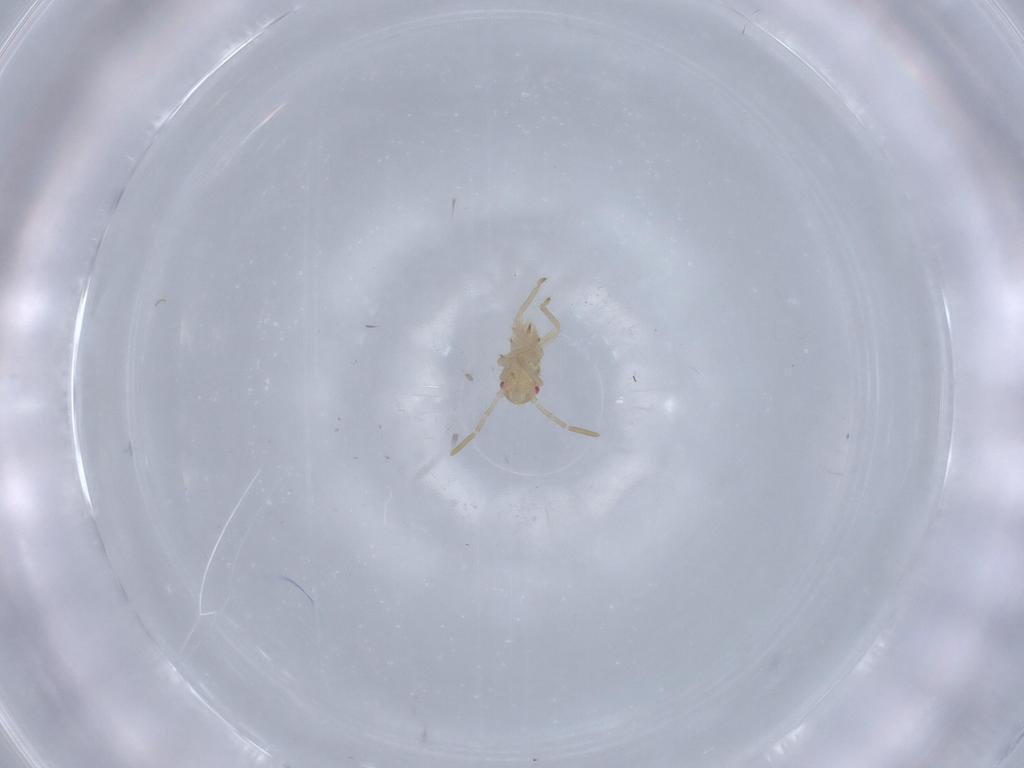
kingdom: Animalia
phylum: Arthropoda
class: Insecta
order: Hemiptera
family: Miridae
